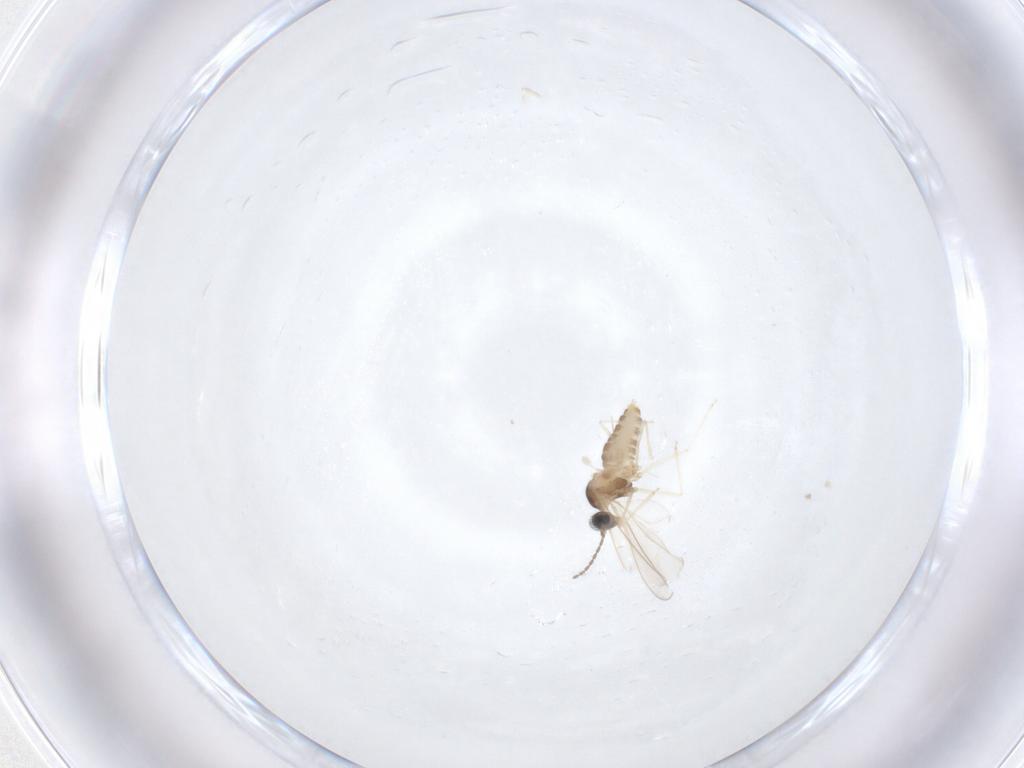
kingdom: Animalia
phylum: Arthropoda
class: Insecta
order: Diptera
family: Cecidomyiidae
